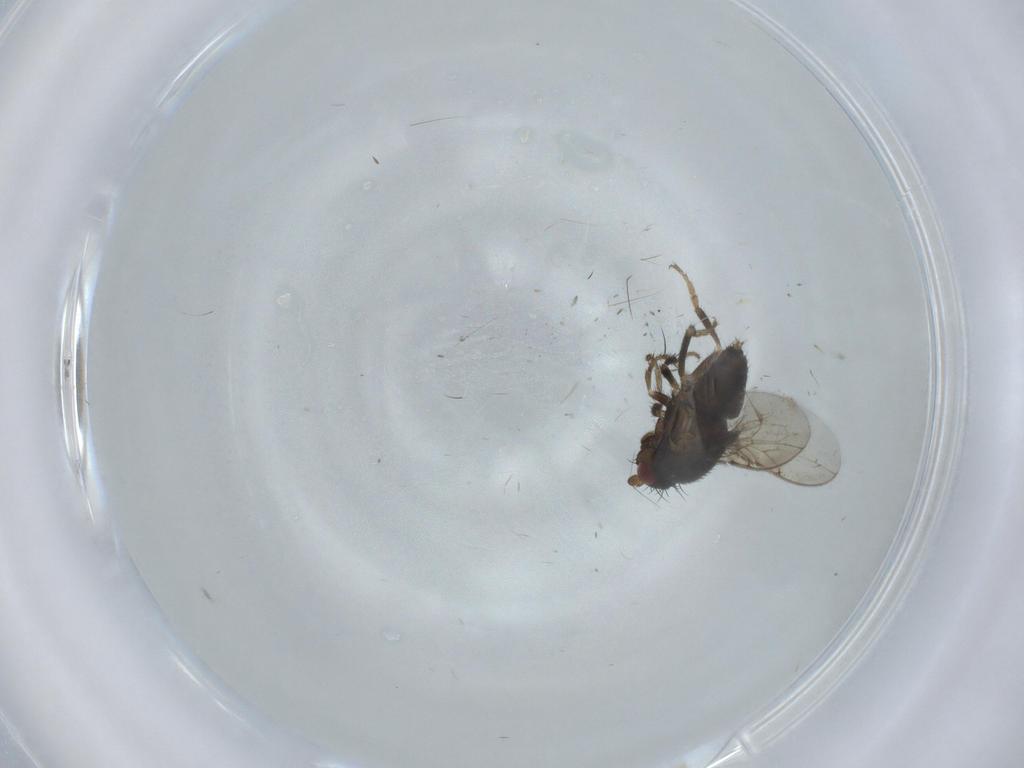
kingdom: Animalia
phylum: Arthropoda
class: Insecta
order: Diptera
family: Sphaeroceridae
